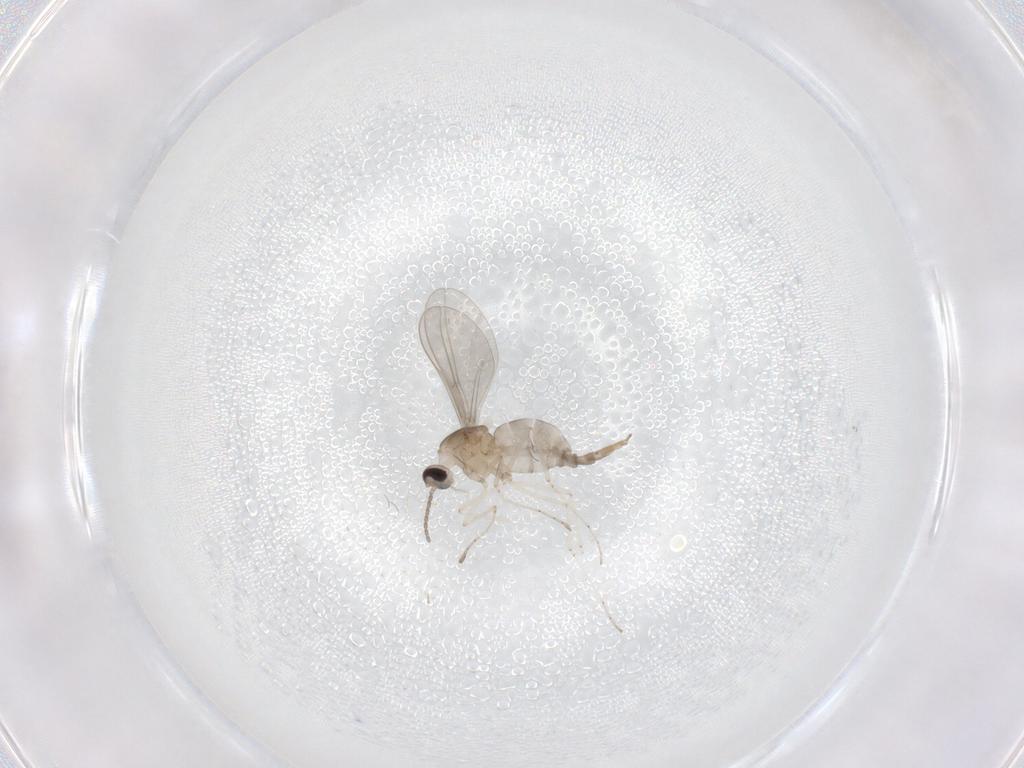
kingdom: Animalia
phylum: Arthropoda
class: Insecta
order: Diptera
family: Cecidomyiidae
